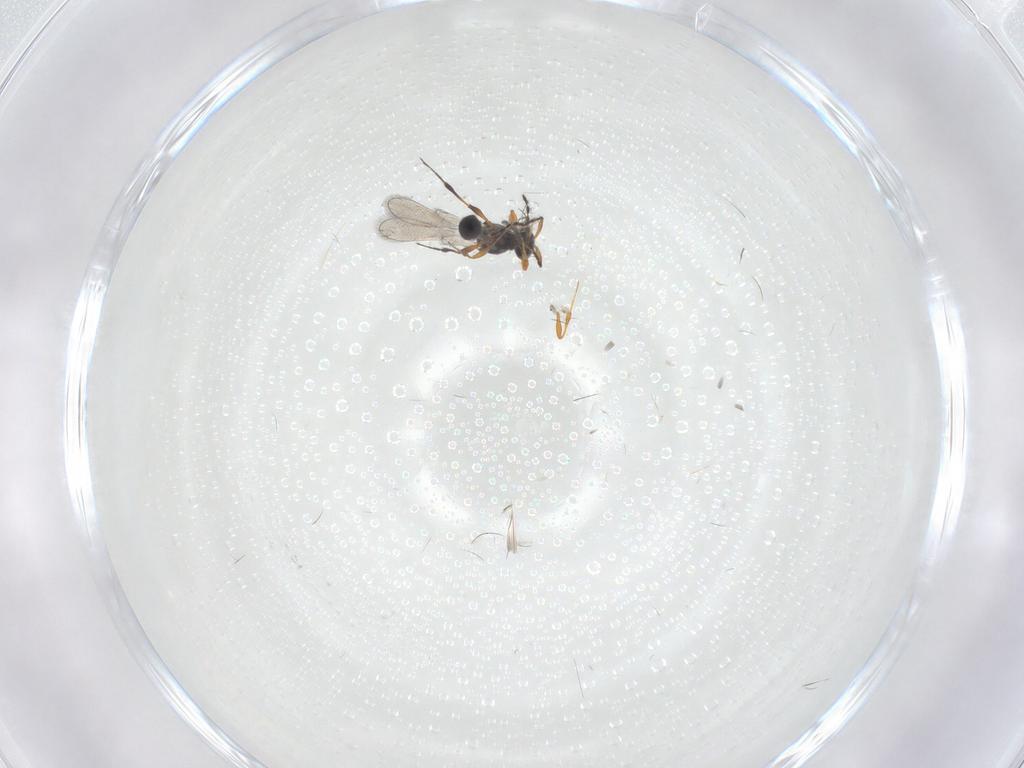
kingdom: Animalia
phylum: Arthropoda
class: Insecta
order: Hymenoptera
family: Platygastridae
